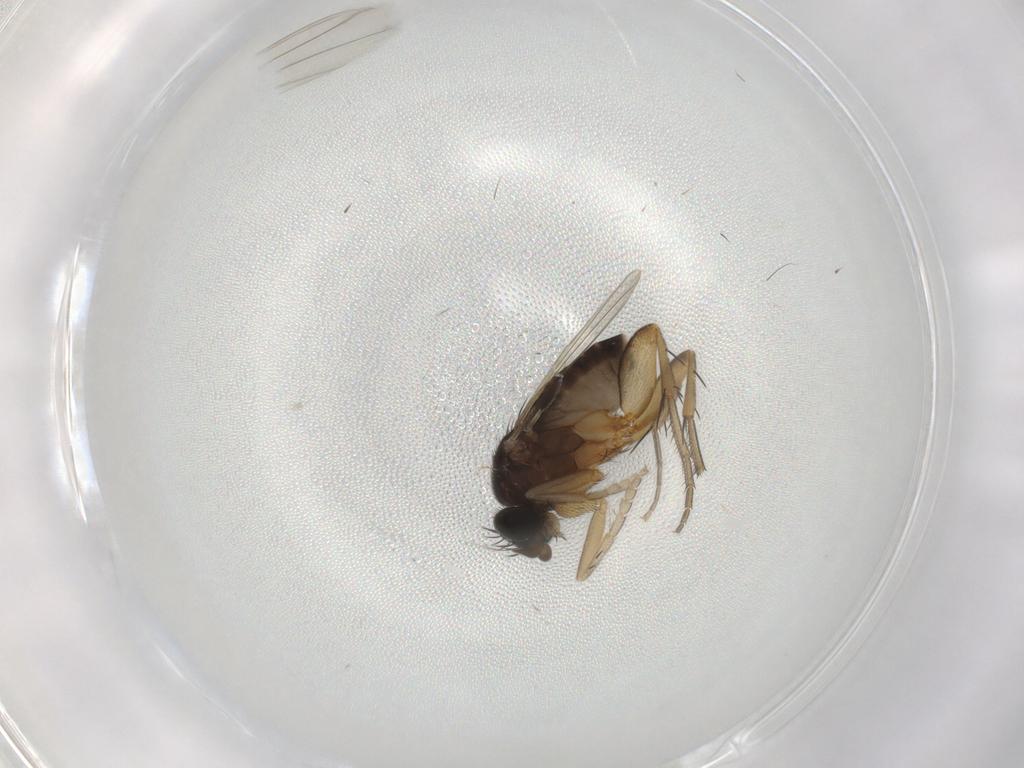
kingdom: Animalia
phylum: Arthropoda
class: Insecta
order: Diptera
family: Phoridae
